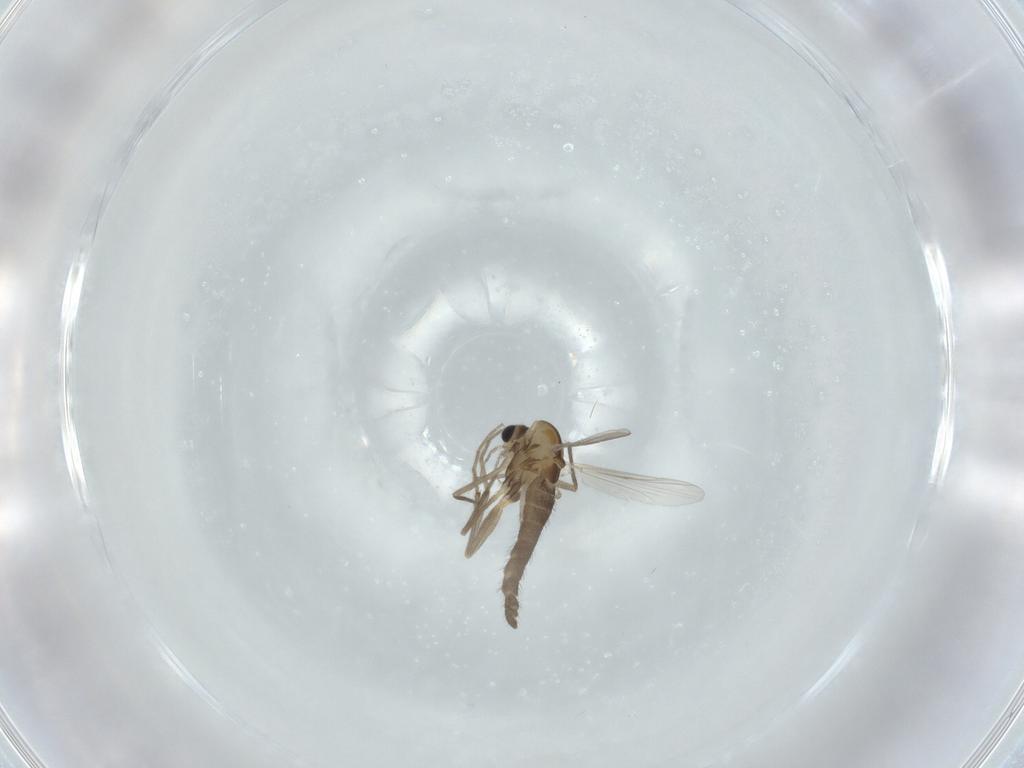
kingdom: Animalia
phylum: Arthropoda
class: Insecta
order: Diptera
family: Chironomidae
